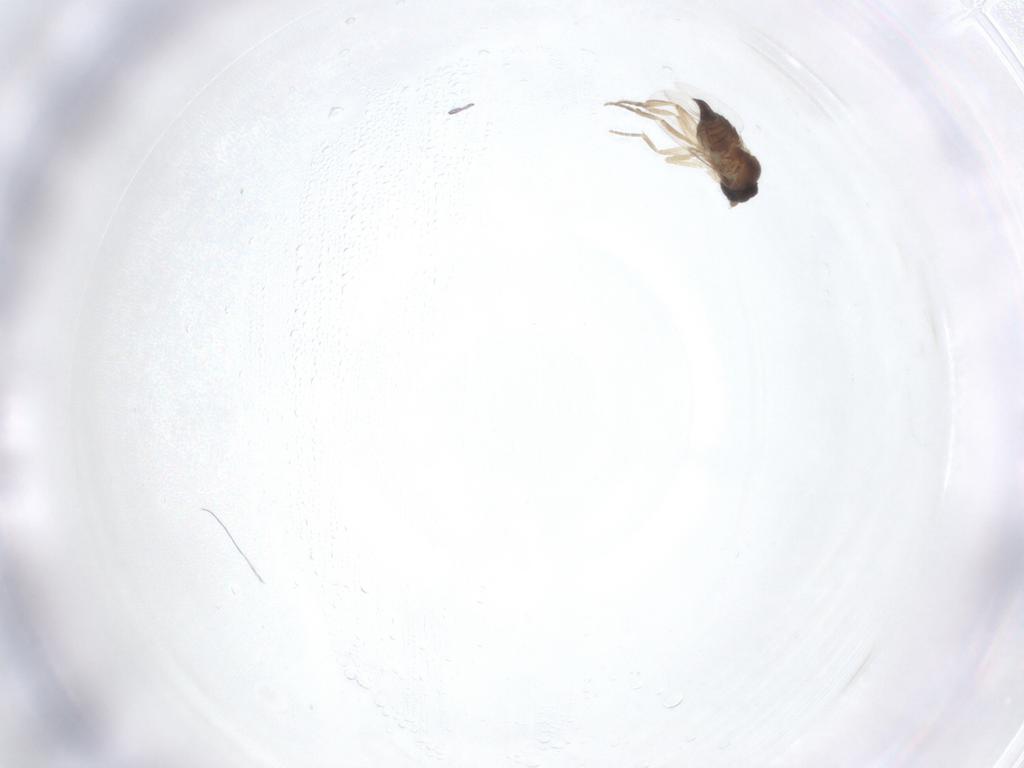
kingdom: Animalia
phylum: Arthropoda
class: Insecta
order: Diptera
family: Phoridae
